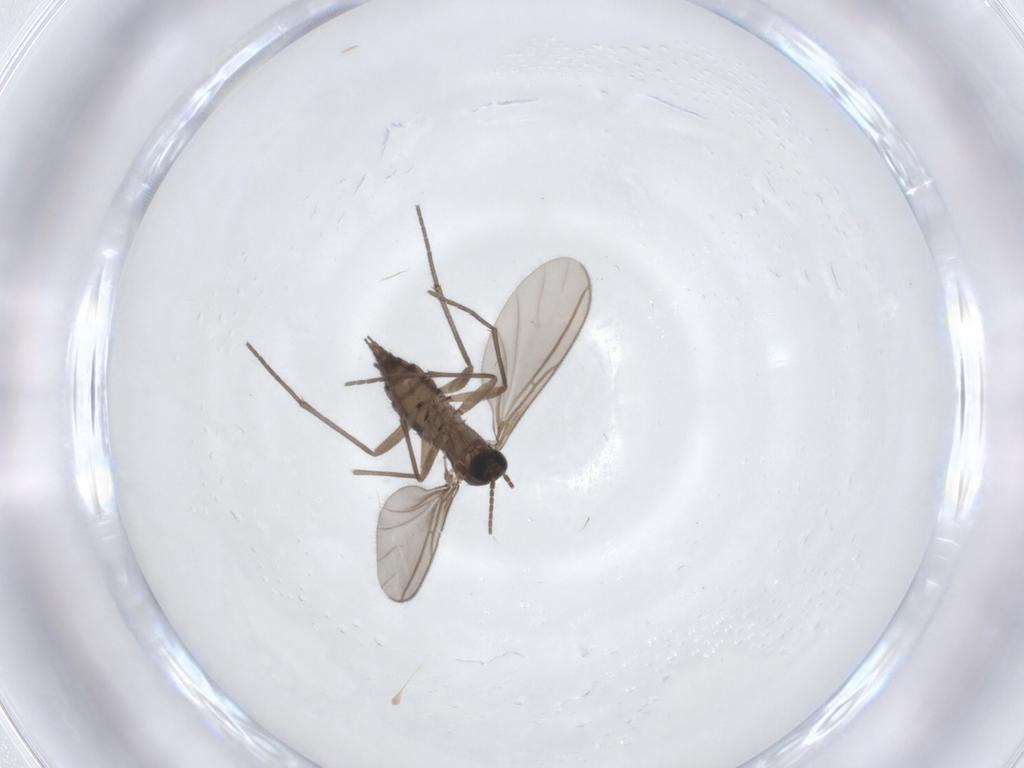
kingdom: Animalia
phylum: Arthropoda
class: Insecta
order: Diptera
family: Sciaridae
